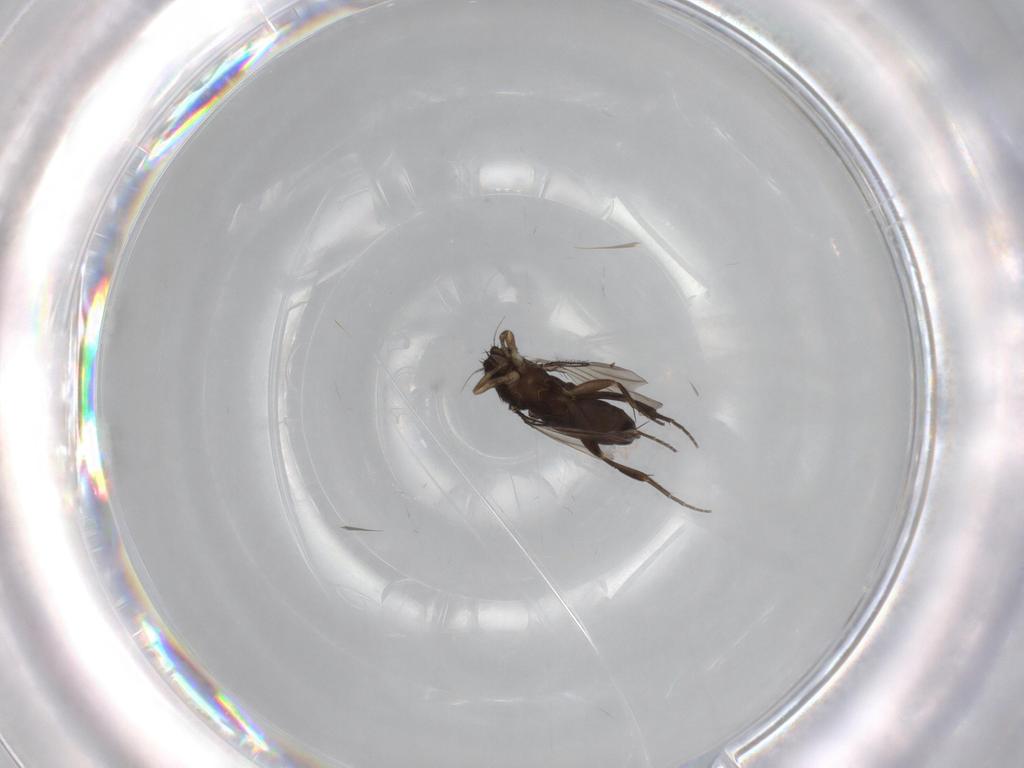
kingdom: Animalia
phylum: Arthropoda
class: Insecta
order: Diptera
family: Phoridae
